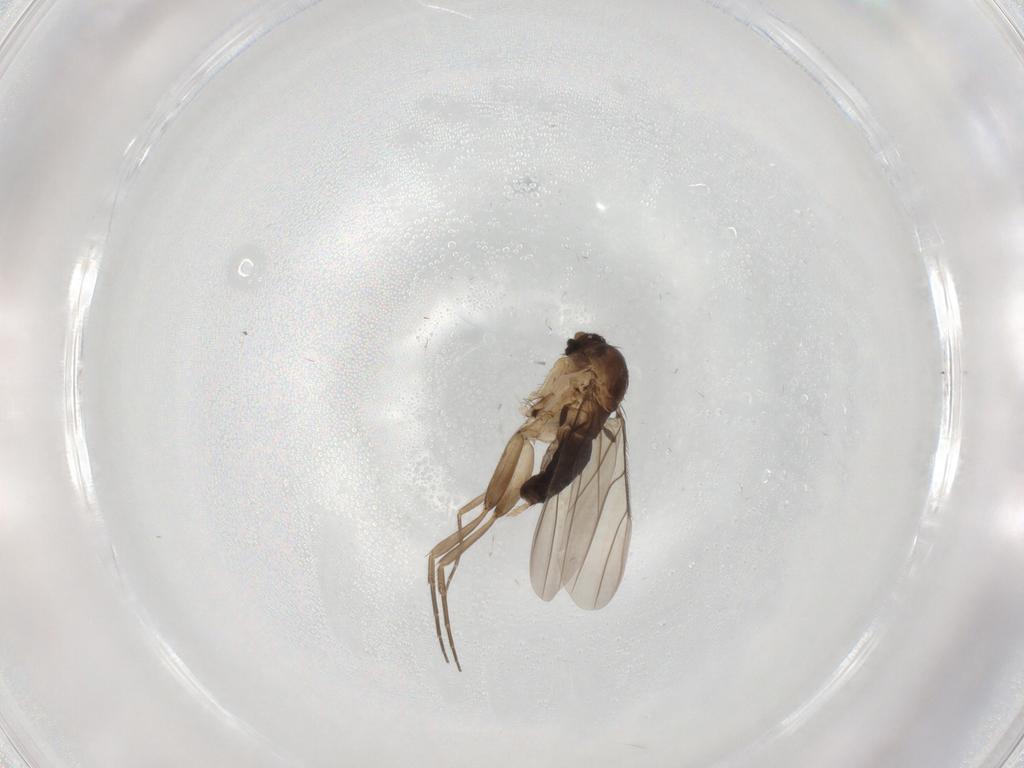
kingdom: Animalia
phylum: Arthropoda
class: Insecta
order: Diptera
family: Phoridae
